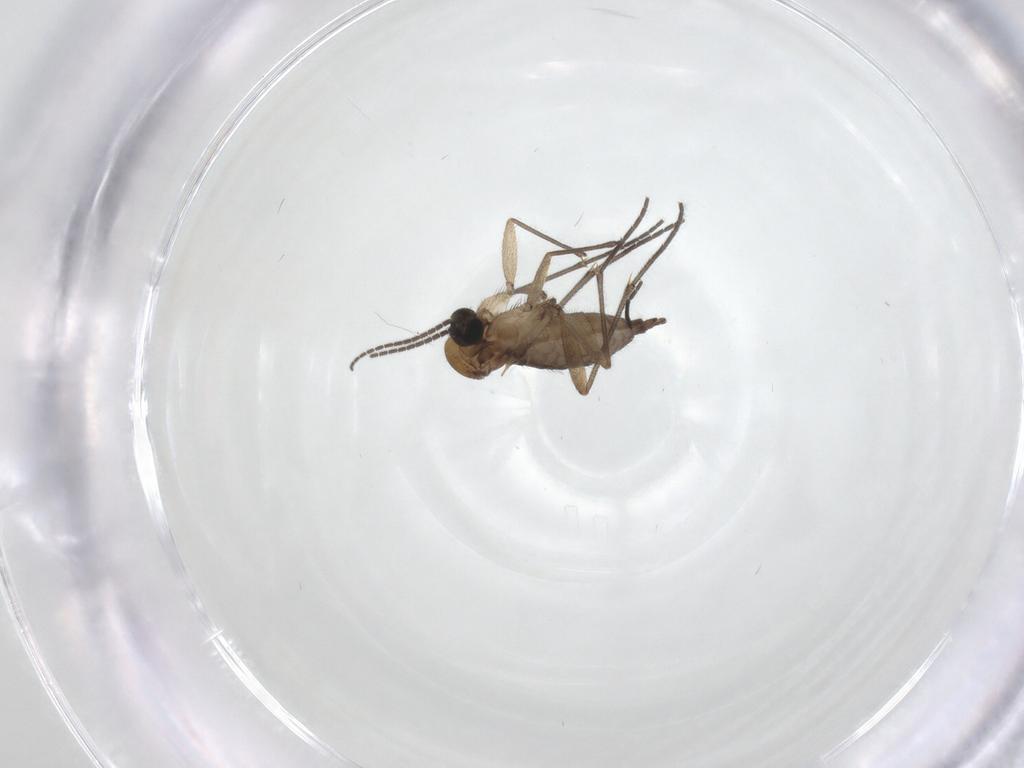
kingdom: Animalia
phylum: Arthropoda
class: Insecta
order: Diptera
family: Sciaridae
